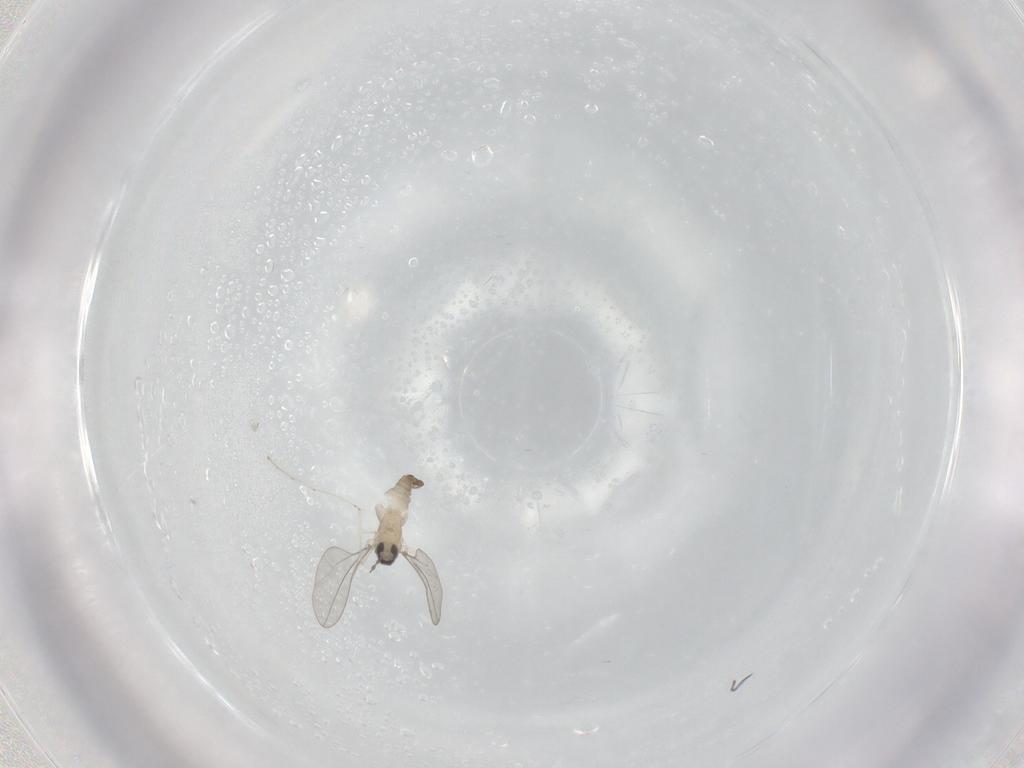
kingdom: Animalia
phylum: Arthropoda
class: Insecta
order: Diptera
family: Cecidomyiidae
